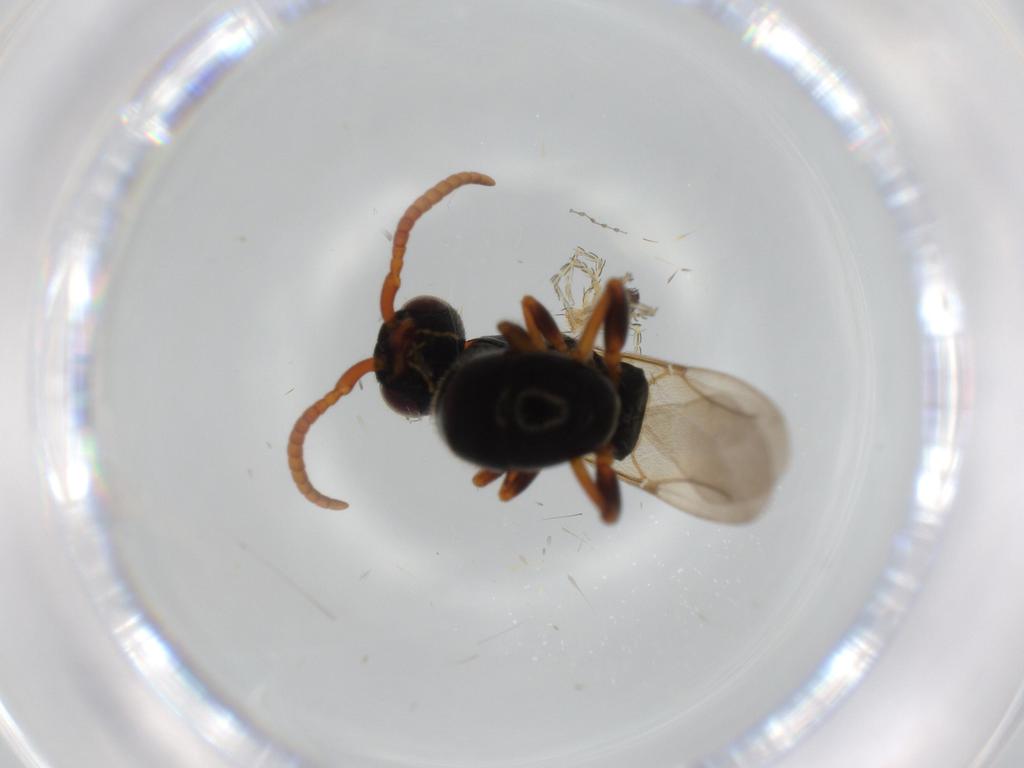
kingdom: Animalia
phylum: Arthropoda
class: Arachnida
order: Trombidiformes
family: Erythraeidae
